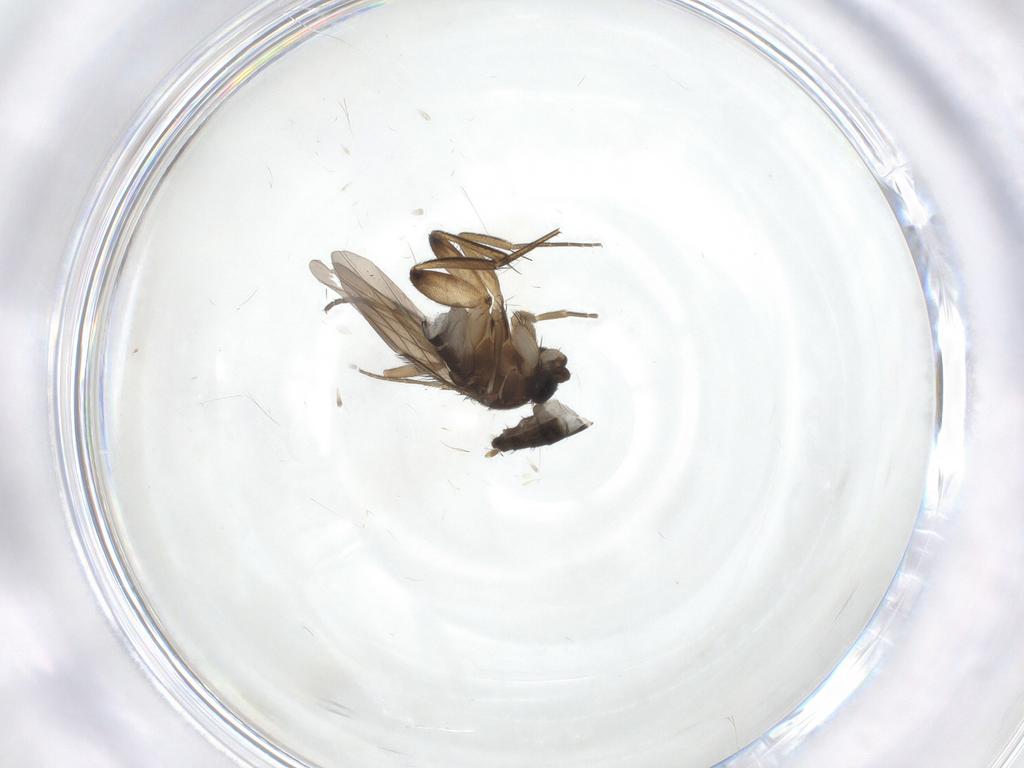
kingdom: Animalia
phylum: Arthropoda
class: Insecta
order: Diptera
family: Phoridae
